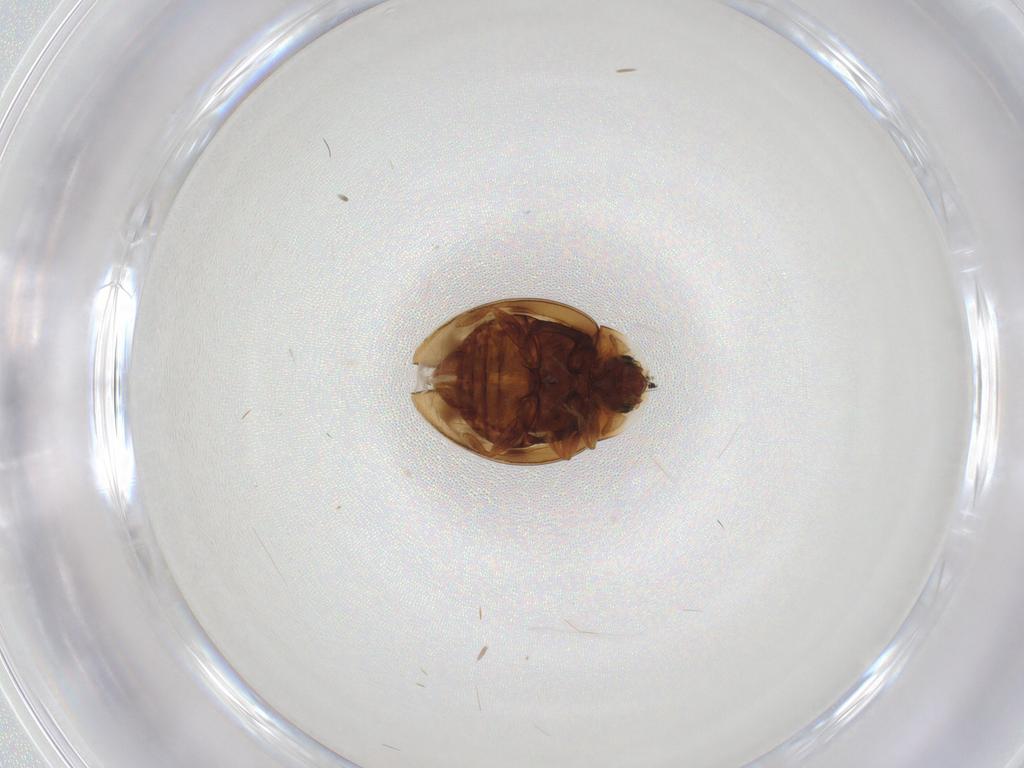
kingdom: Animalia
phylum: Arthropoda
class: Insecta
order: Coleoptera
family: Coccinellidae
